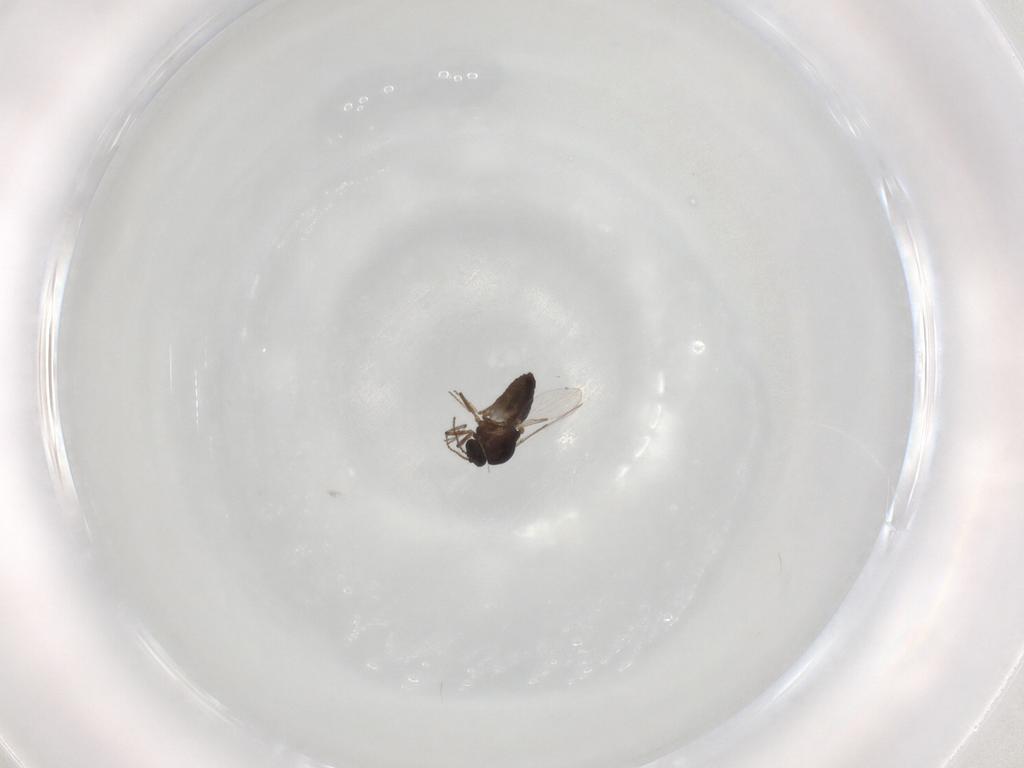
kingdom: Animalia
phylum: Arthropoda
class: Insecta
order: Diptera
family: Ceratopogonidae
